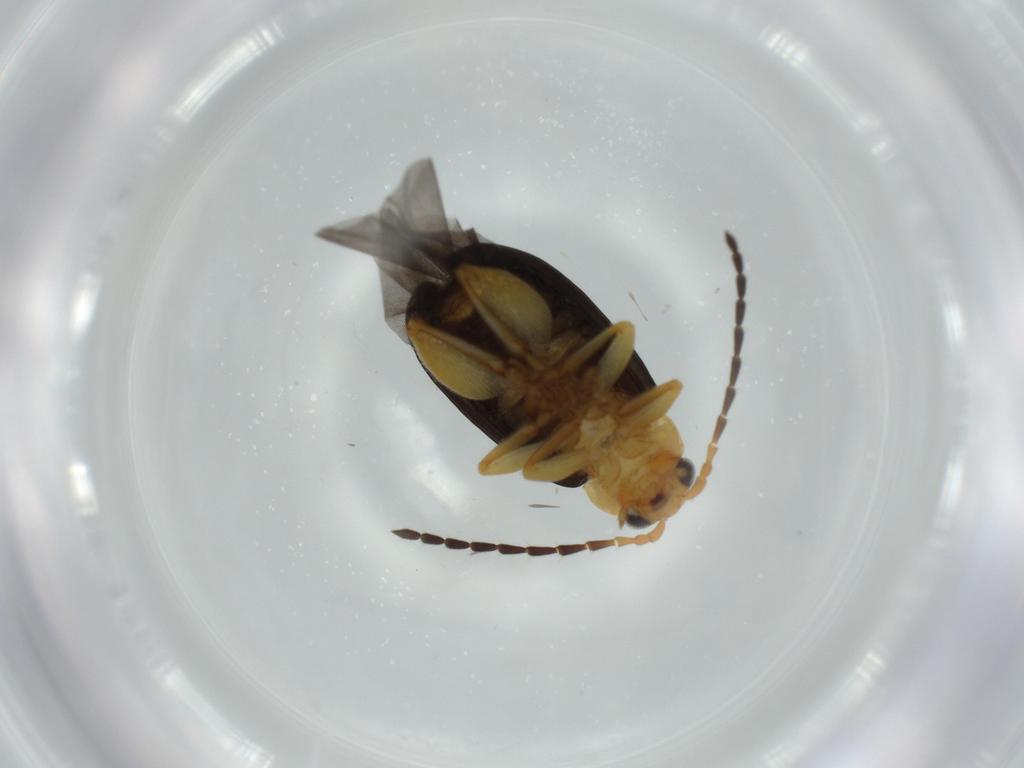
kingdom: Animalia
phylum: Arthropoda
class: Insecta
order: Coleoptera
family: Chrysomelidae
